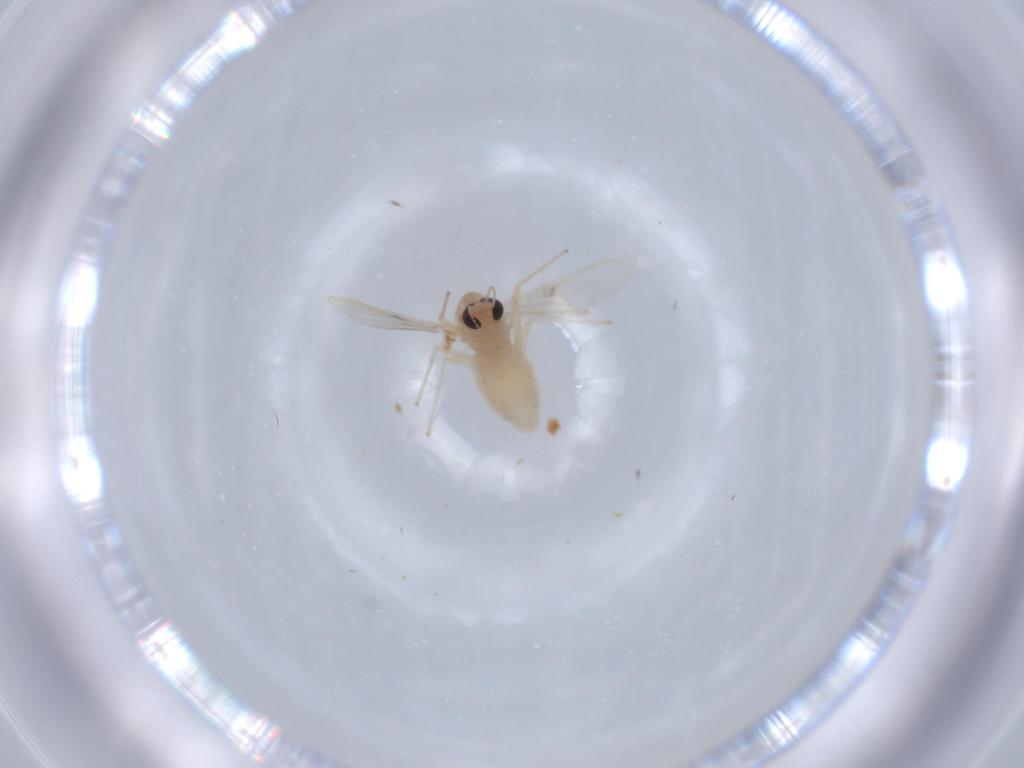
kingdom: Animalia
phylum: Arthropoda
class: Insecta
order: Diptera
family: Chironomidae
